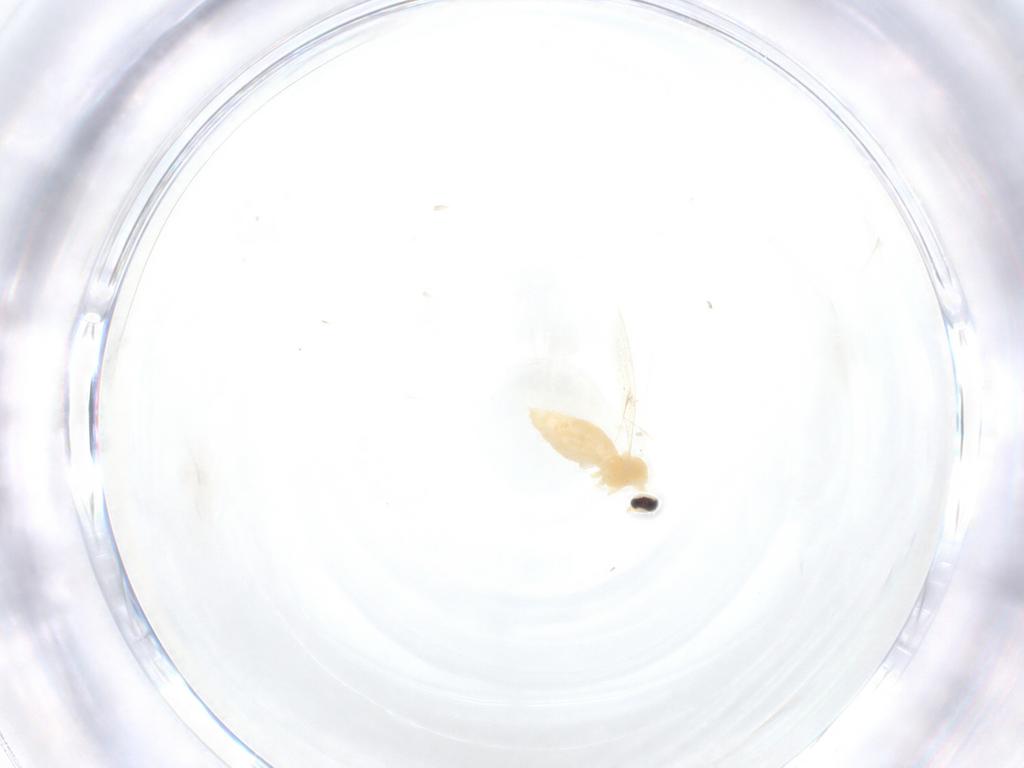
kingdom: Animalia
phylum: Arthropoda
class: Insecta
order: Diptera
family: Cecidomyiidae
